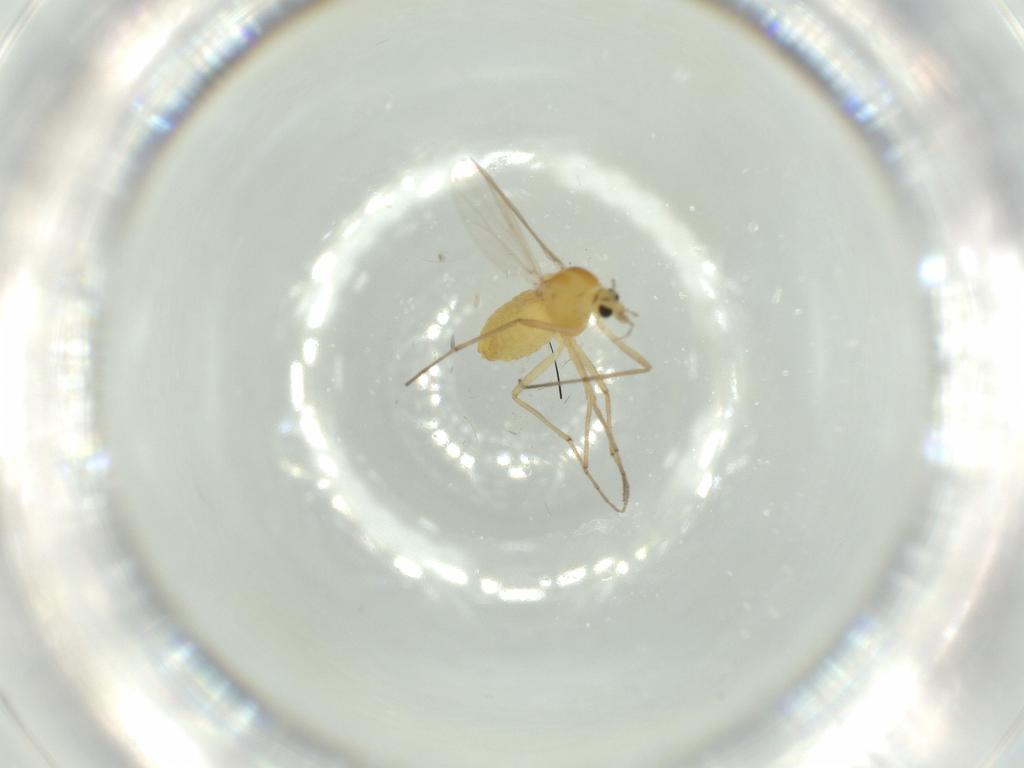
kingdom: Animalia
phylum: Arthropoda
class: Insecta
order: Diptera
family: Cecidomyiidae
